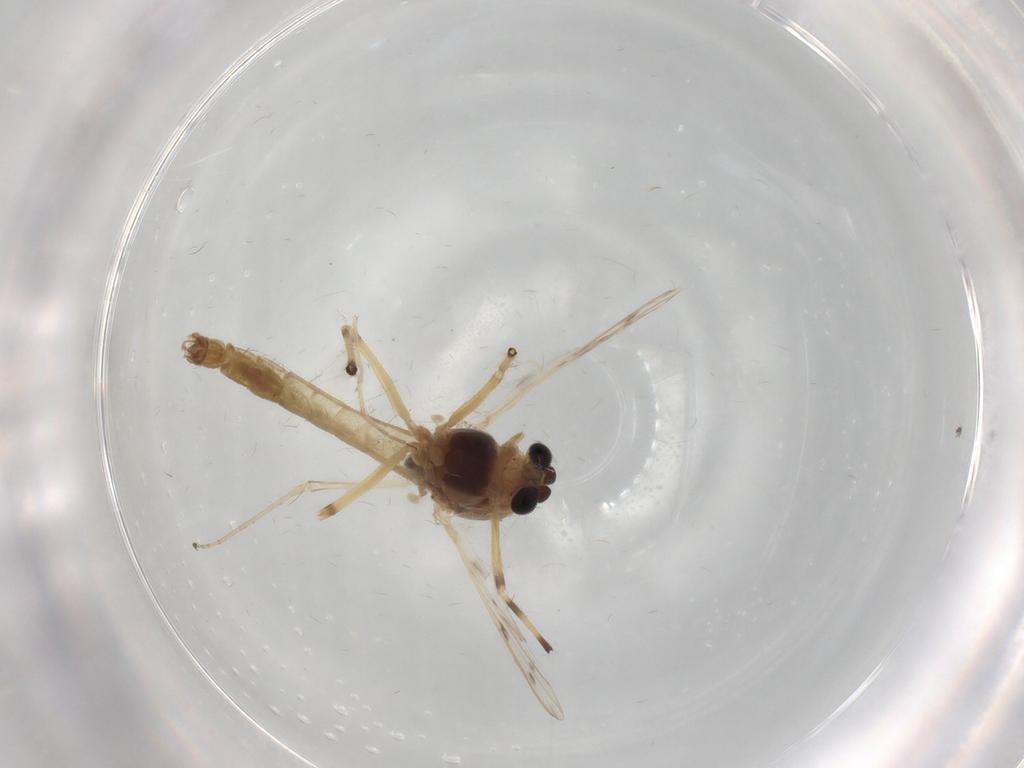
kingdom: Animalia
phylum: Arthropoda
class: Insecta
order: Diptera
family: Chironomidae
